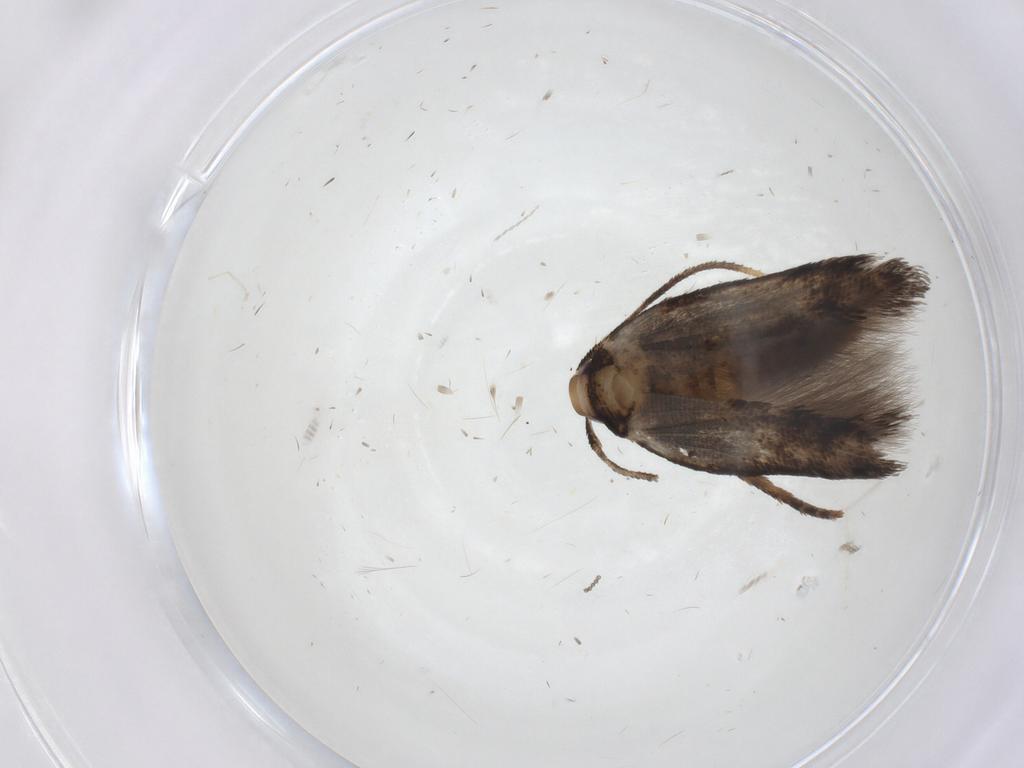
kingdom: Animalia
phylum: Arthropoda
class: Insecta
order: Lepidoptera
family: Cosmopterigidae
